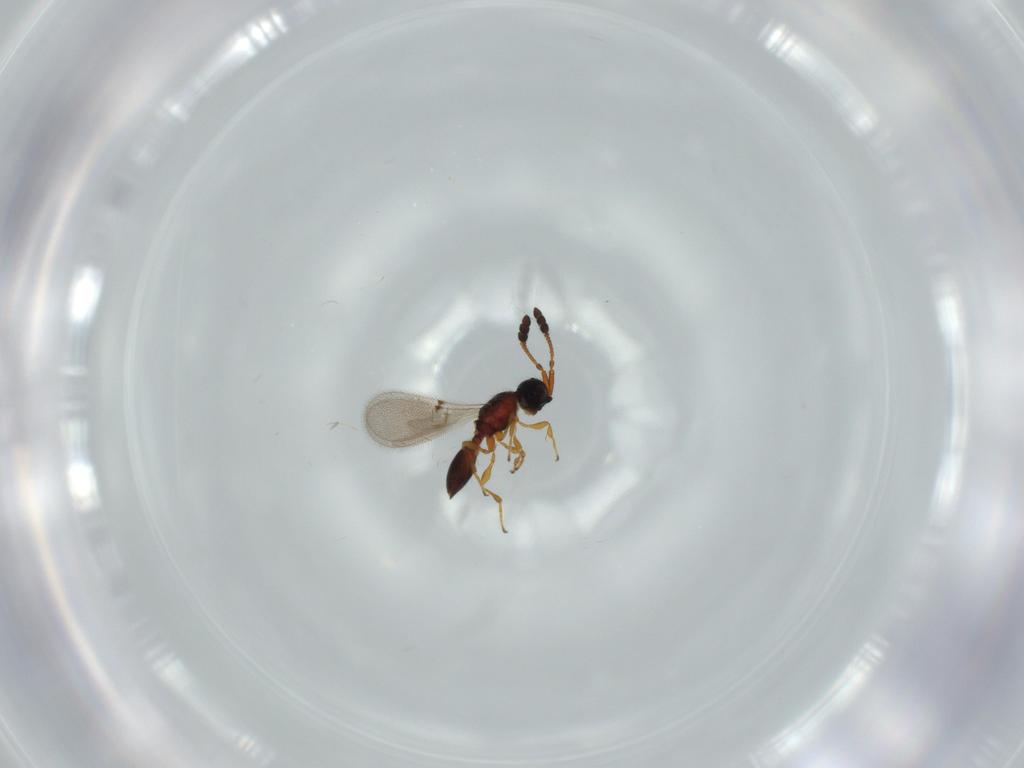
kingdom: Animalia
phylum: Arthropoda
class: Insecta
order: Hymenoptera
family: Diapriidae
